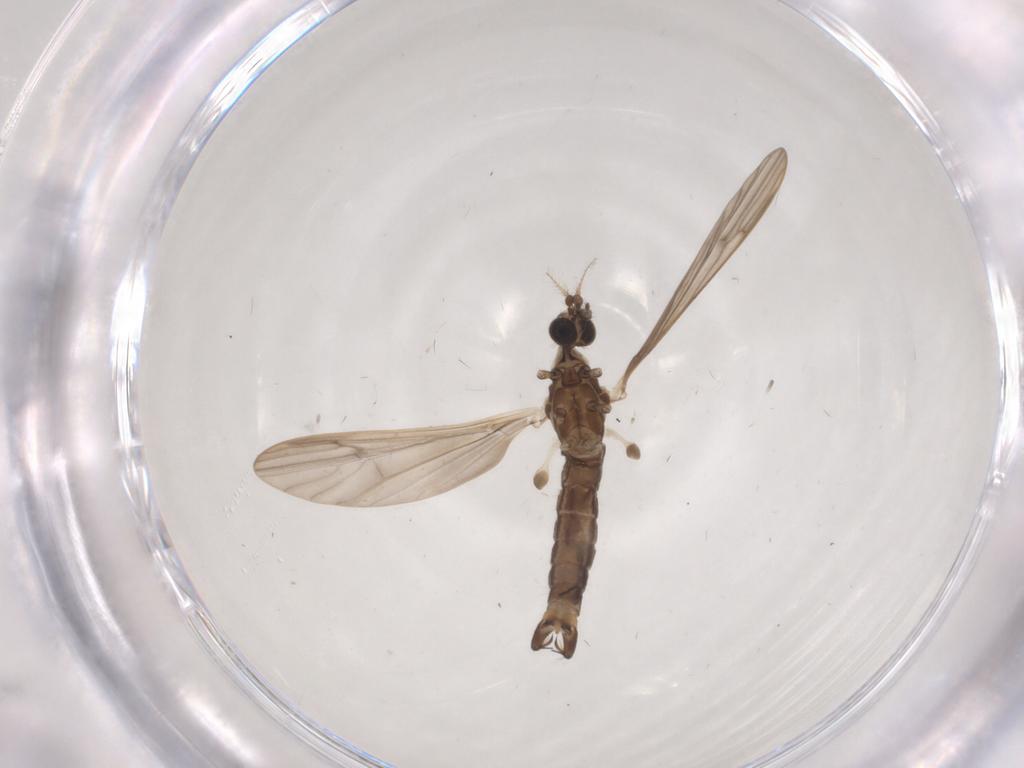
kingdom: Animalia
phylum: Arthropoda
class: Insecta
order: Diptera
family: Limoniidae
